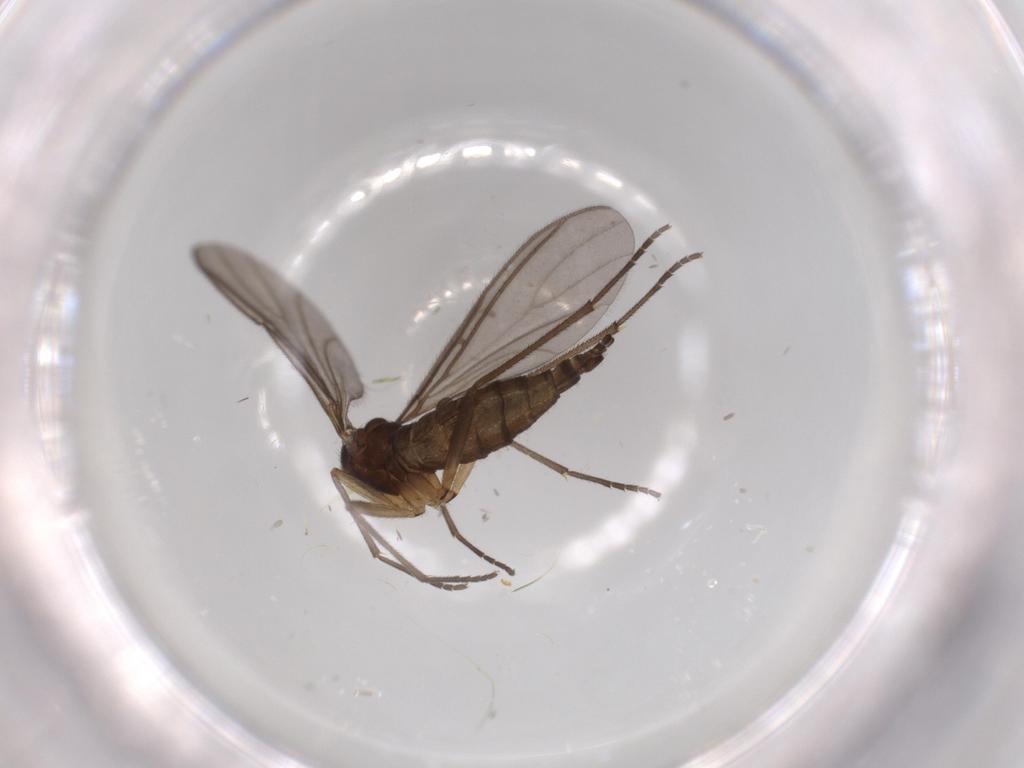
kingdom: Animalia
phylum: Arthropoda
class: Insecta
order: Diptera
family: Sciaridae
